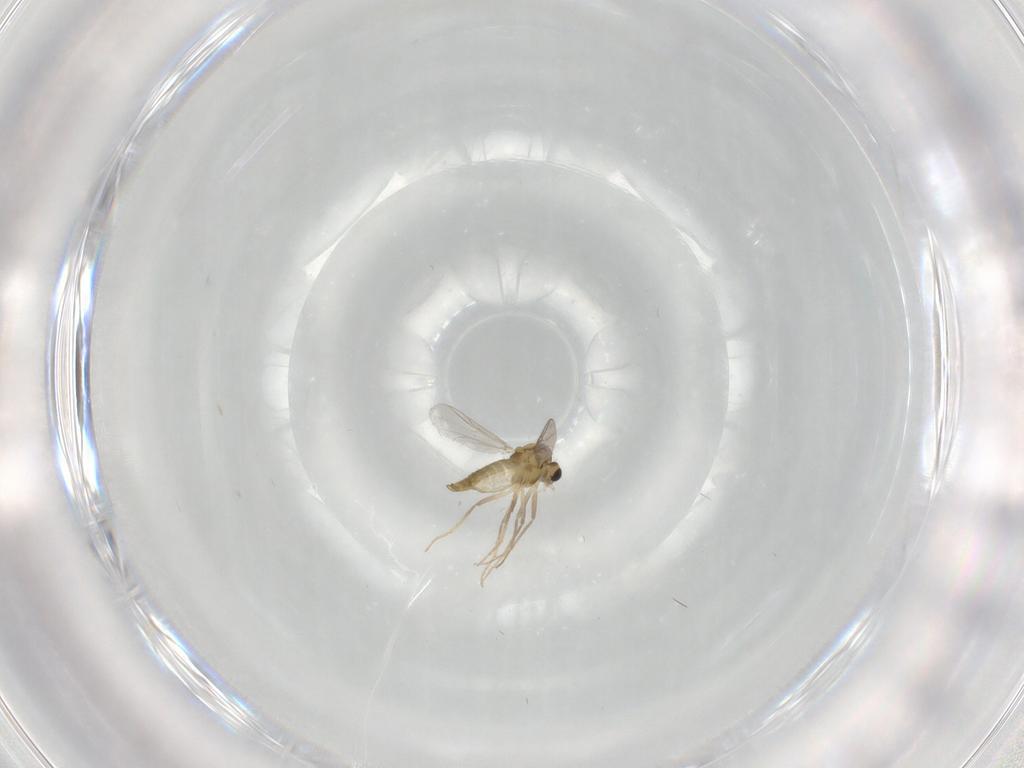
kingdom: Animalia
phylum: Arthropoda
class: Insecta
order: Diptera
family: Chironomidae
